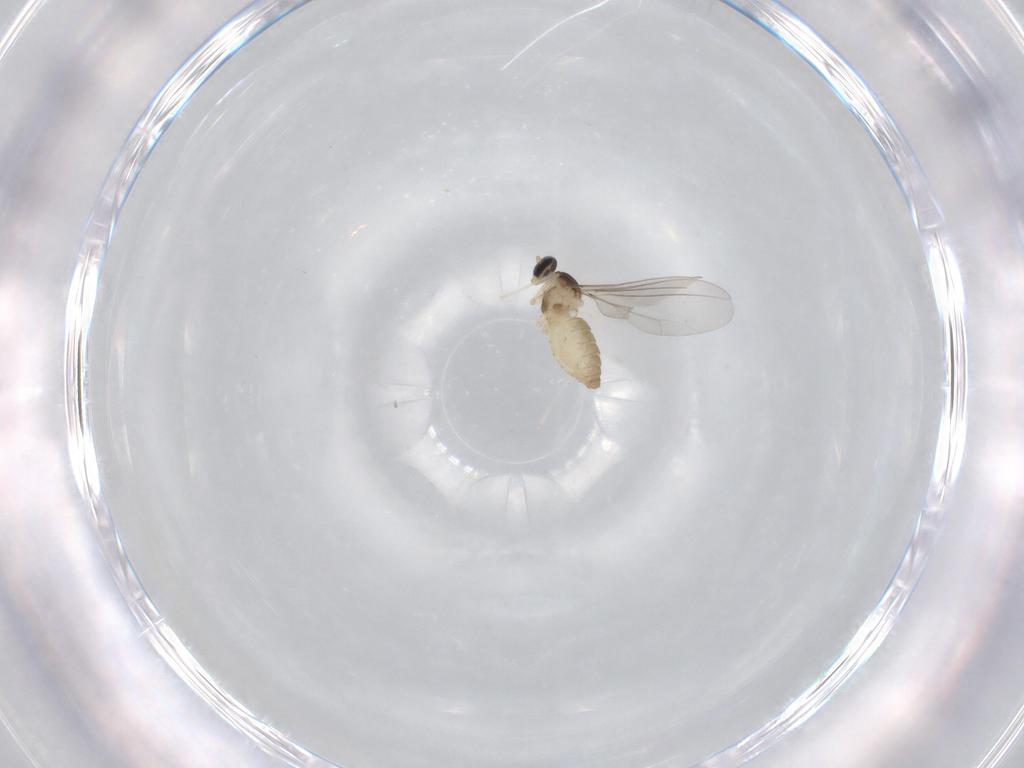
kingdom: Animalia
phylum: Arthropoda
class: Insecta
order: Diptera
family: Cecidomyiidae
